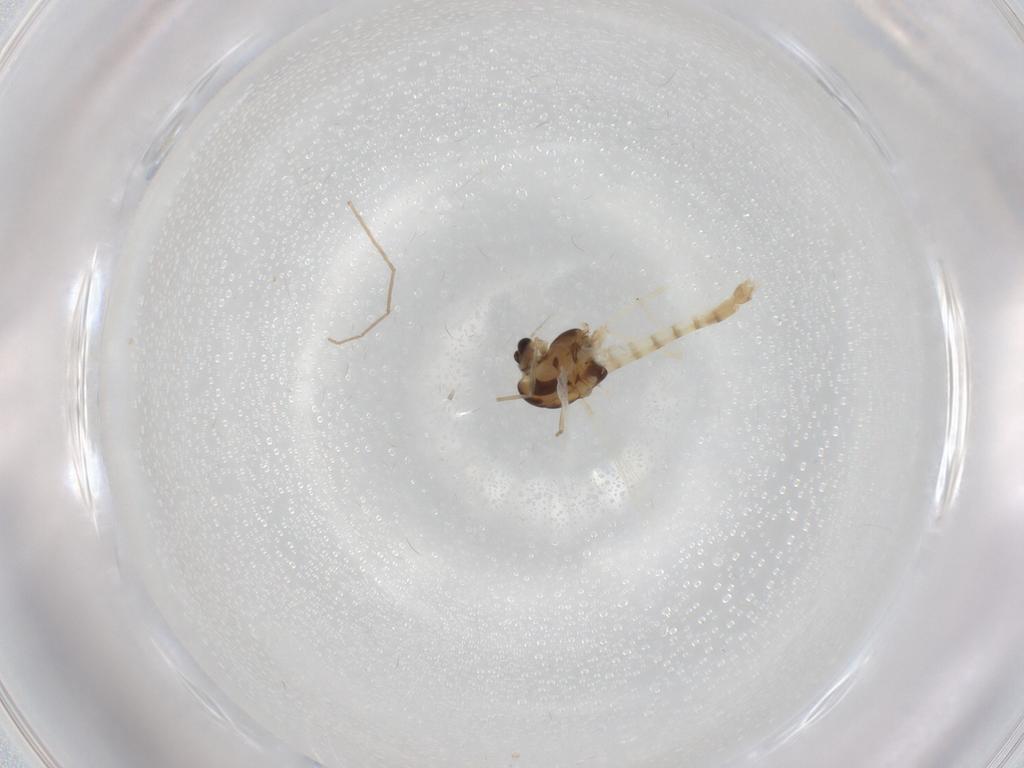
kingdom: Animalia
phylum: Arthropoda
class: Insecta
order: Diptera
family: Chironomidae
